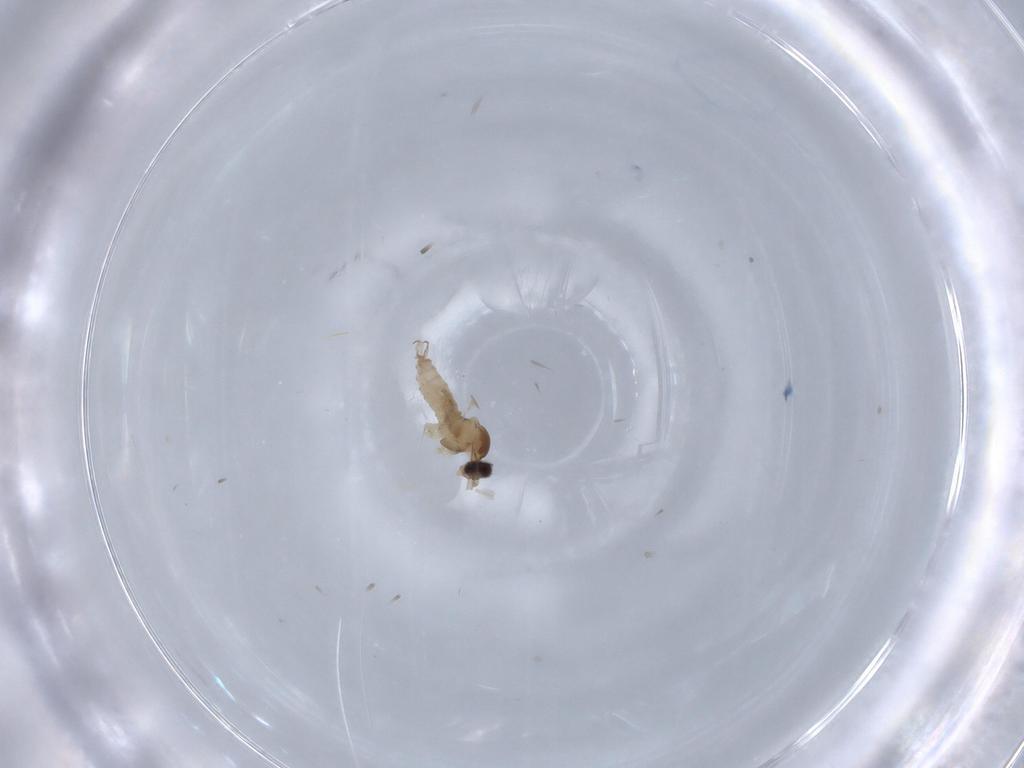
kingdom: Animalia
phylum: Arthropoda
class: Insecta
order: Diptera
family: Cecidomyiidae
